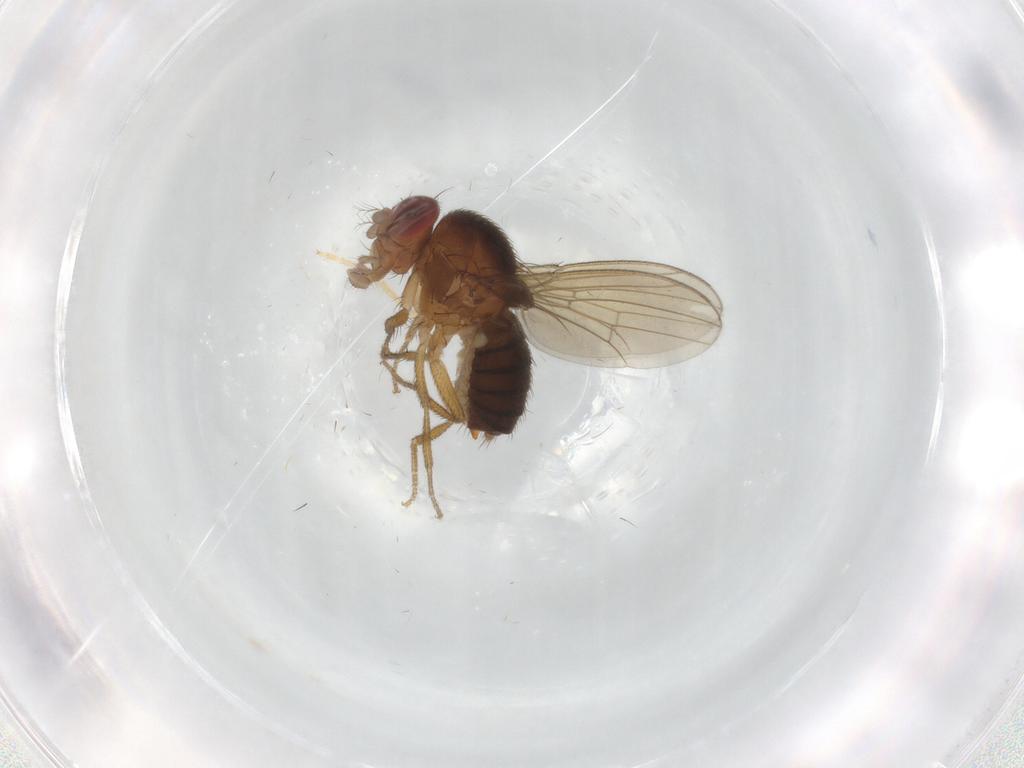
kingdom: Animalia
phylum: Arthropoda
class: Insecta
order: Diptera
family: Drosophilidae
